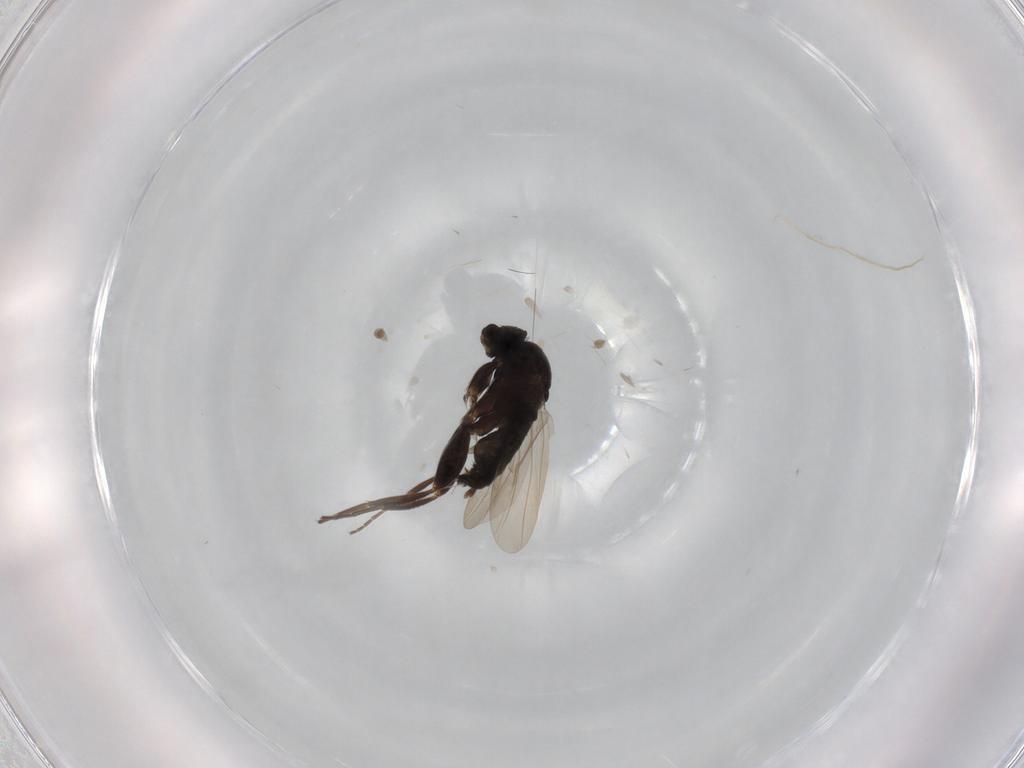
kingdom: Animalia
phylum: Arthropoda
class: Insecta
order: Diptera
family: Phoridae
